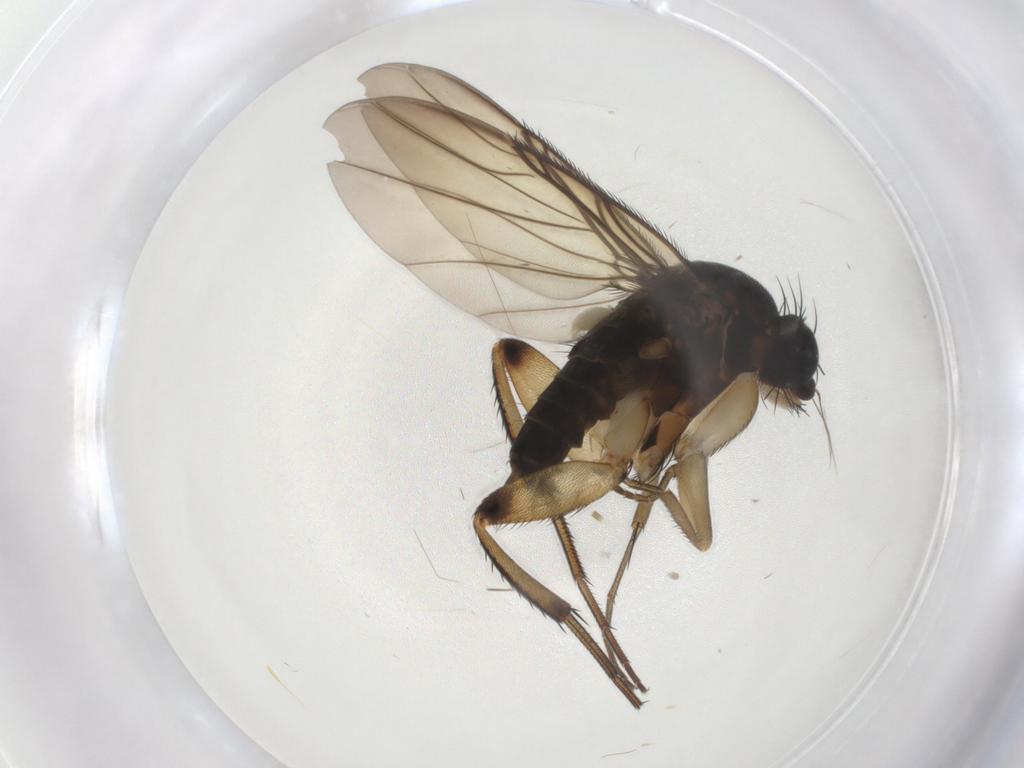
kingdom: Animalia
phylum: Arthropoda
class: Insecta
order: Diptera
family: Phoridae
